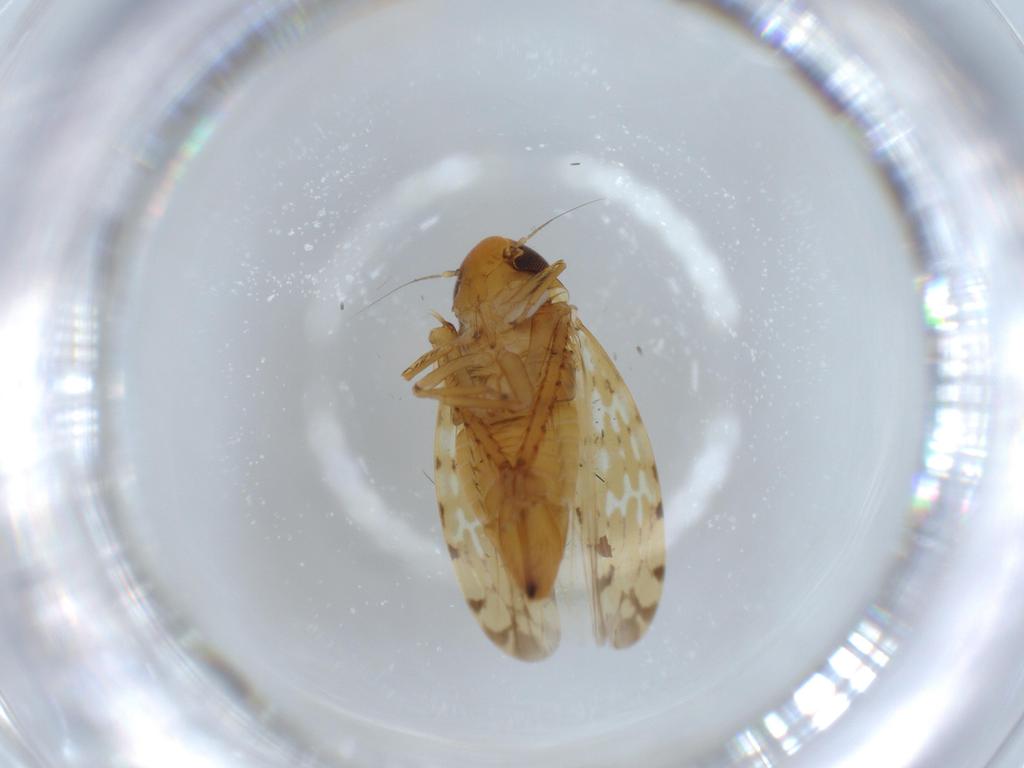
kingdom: Animalia
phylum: Arthropoda
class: Insecta
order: Hemiptera
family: Cicadellidae
